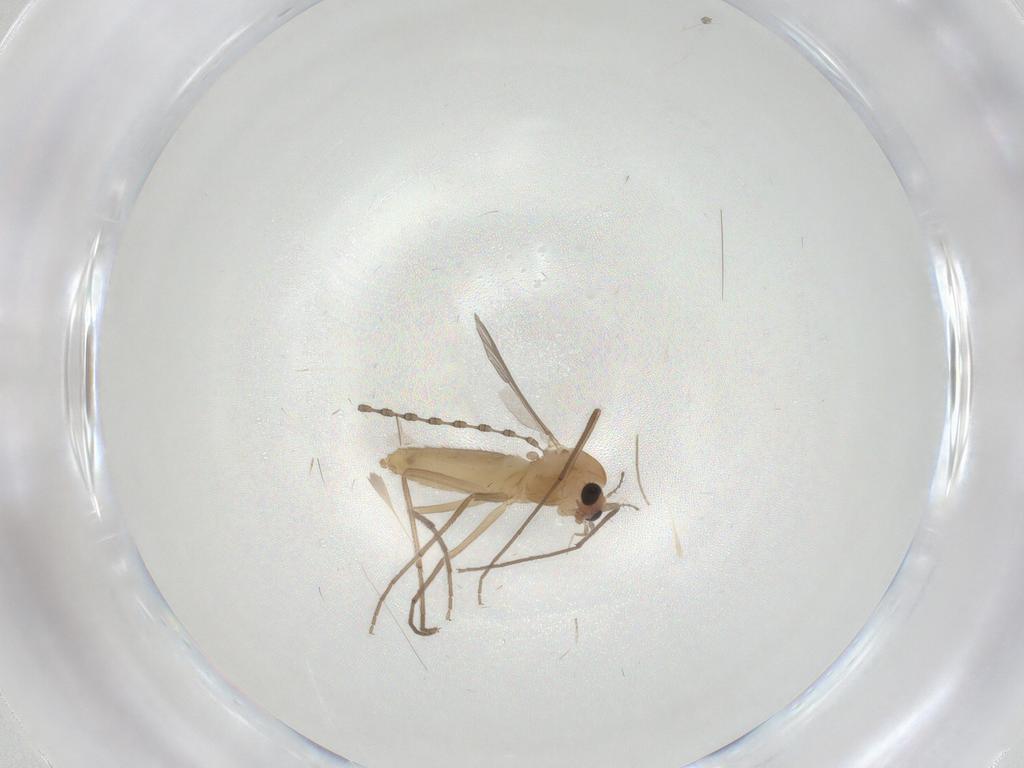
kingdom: Animalia
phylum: Arthropoda
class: Insecta
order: Diptera
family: Chironomidae
